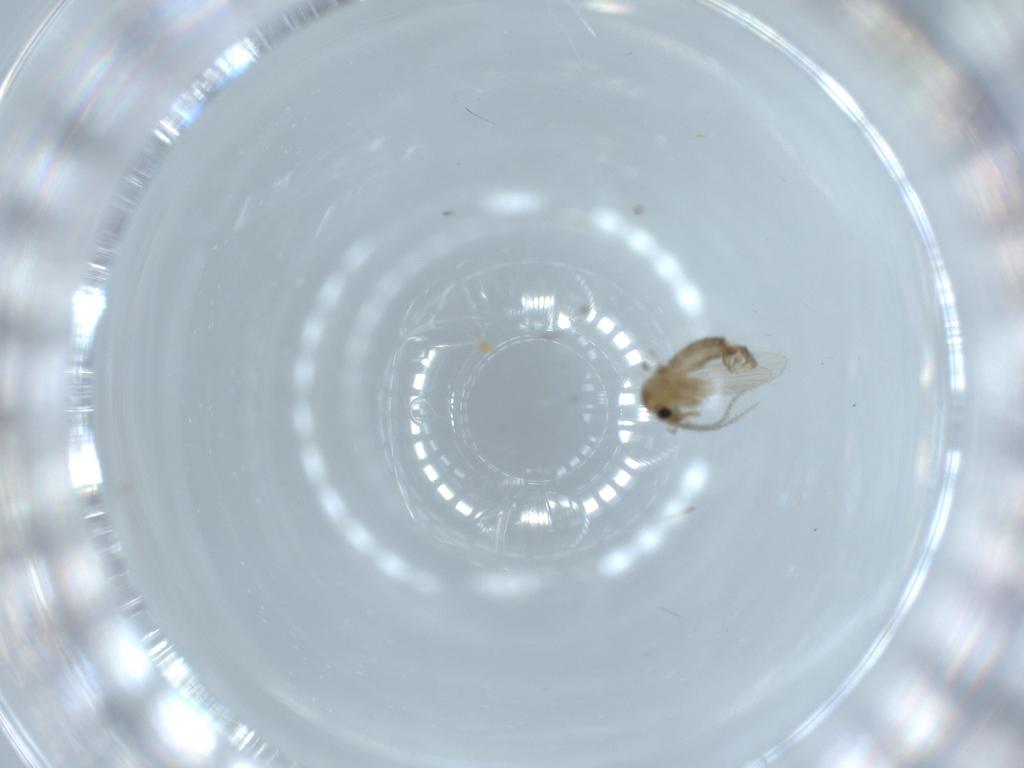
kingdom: Animalia
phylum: Arthropoda
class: Insecta
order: Diptera
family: Psychodidae
